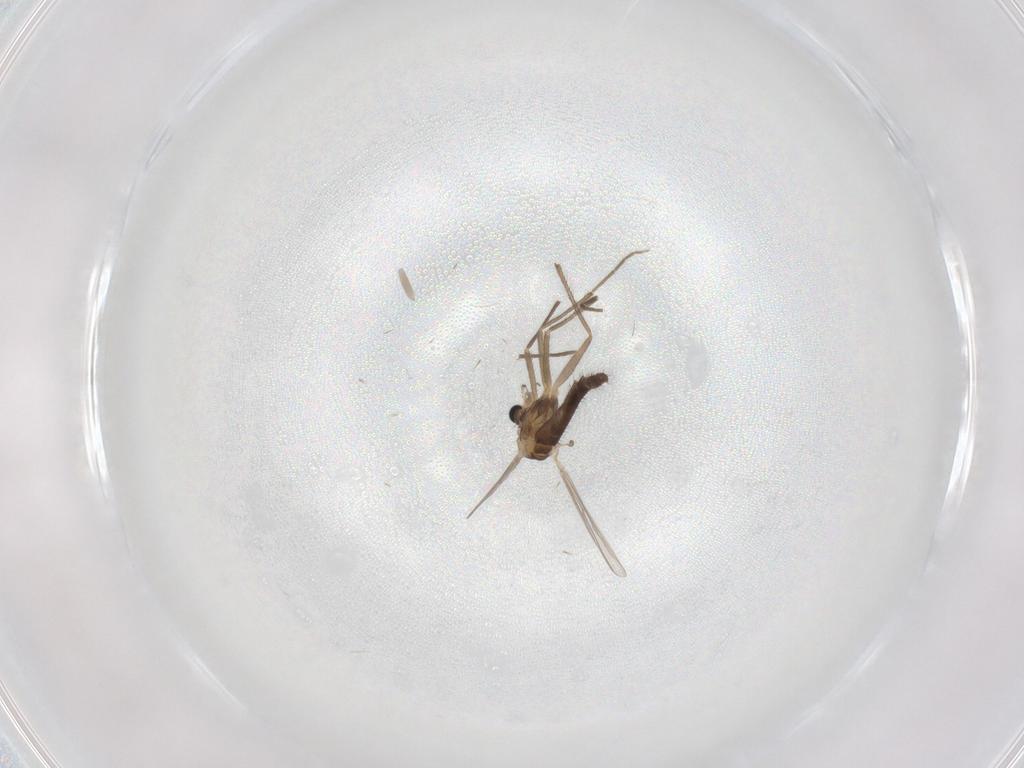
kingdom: Animalia
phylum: Arthropoda
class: Insecta
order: Diptera
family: Chironomidae
